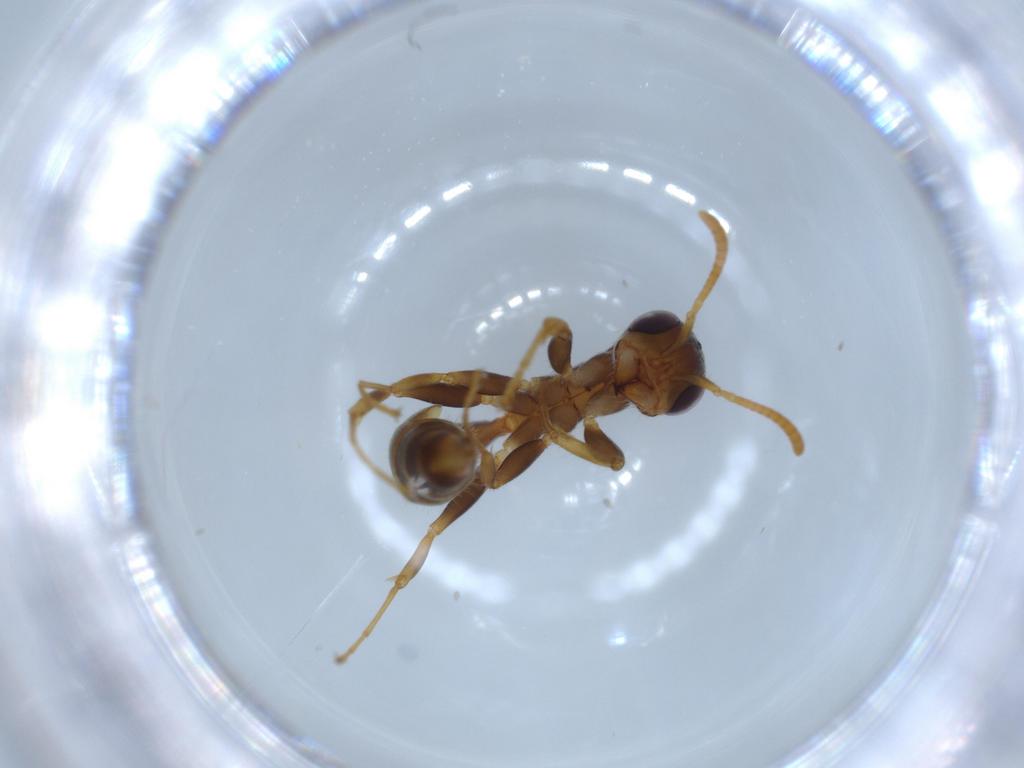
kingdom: Animalia
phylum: Arthropoda
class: Insecta
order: Hymenoptera
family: Formicidae
